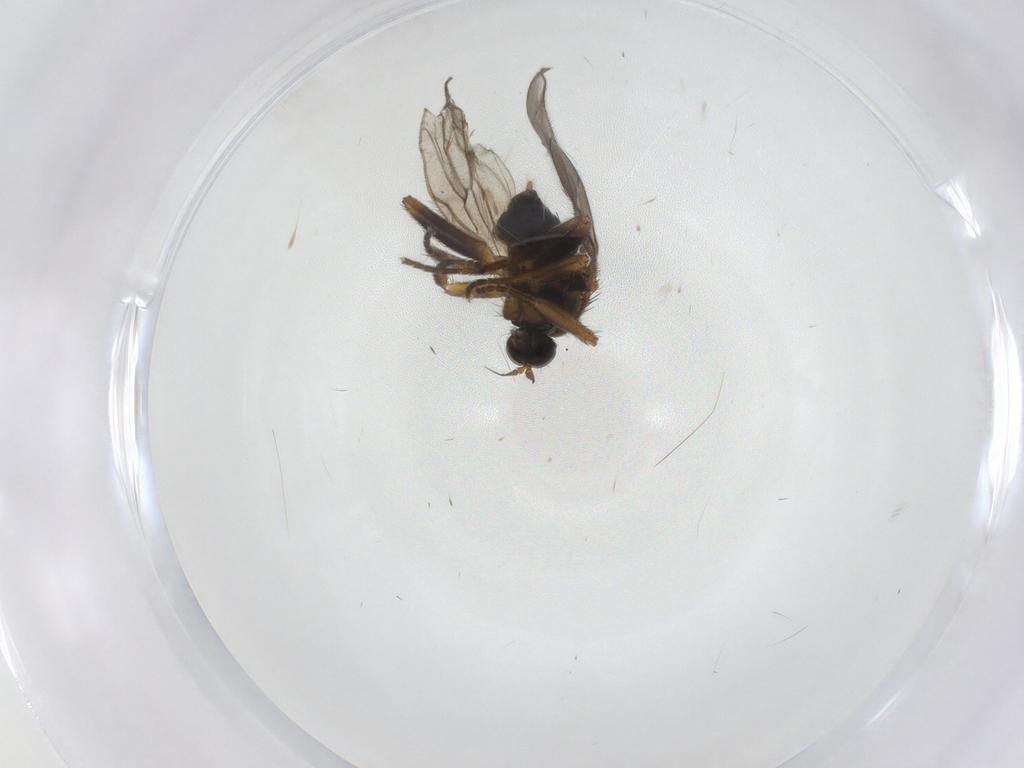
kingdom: Animalia
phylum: Arthropoda
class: Insecta
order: Diptera
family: Hybotidae
